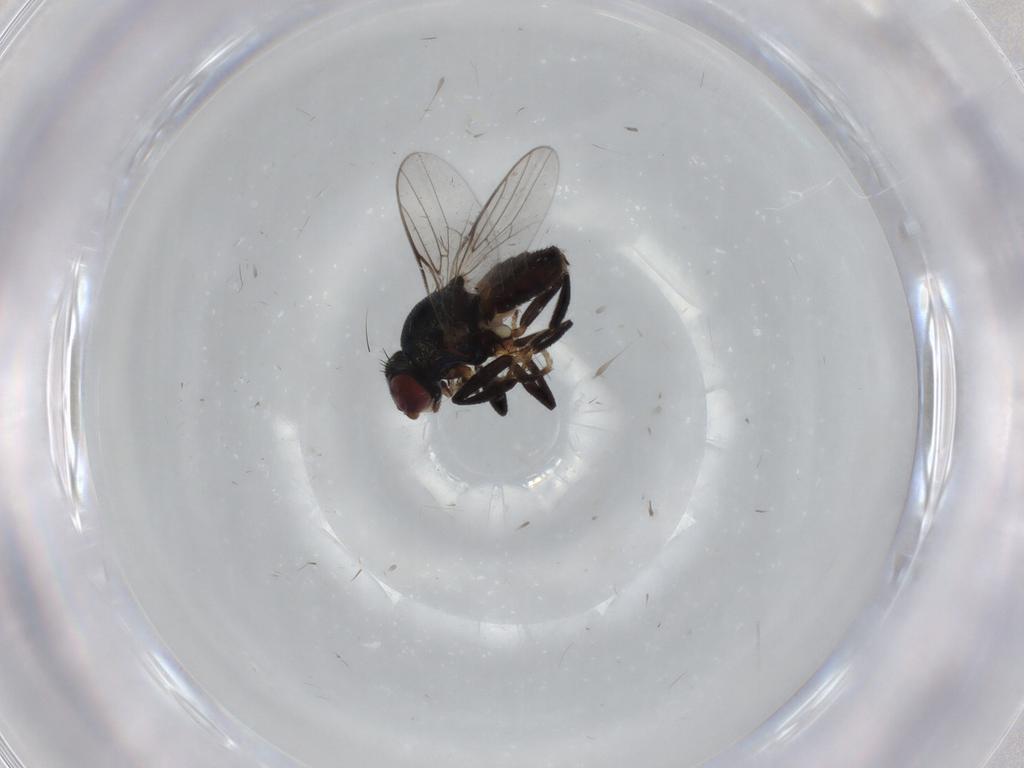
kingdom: Animalia
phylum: Arthropoda
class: Insecta
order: Diptera
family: Chloropidae
